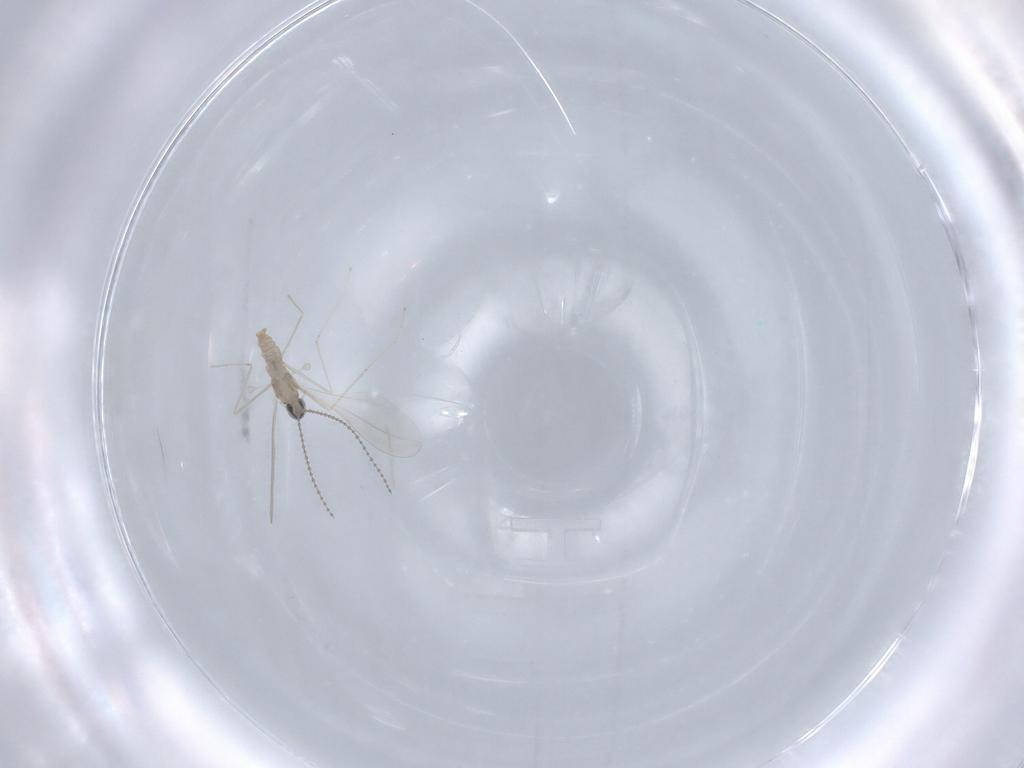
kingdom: Animalia
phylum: Arthropoda
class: Insecta
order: Diptera
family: Cecidomyiidae
